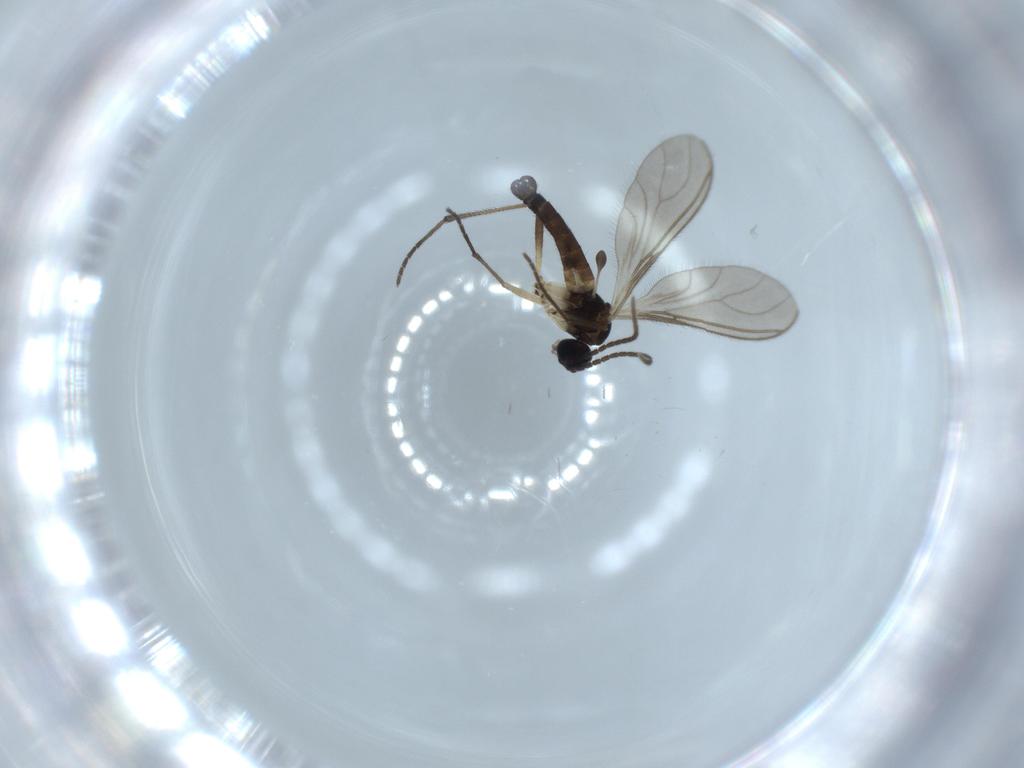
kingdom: Animalia
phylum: Arthropoda
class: Insecta
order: Diptera
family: Sciaridae
